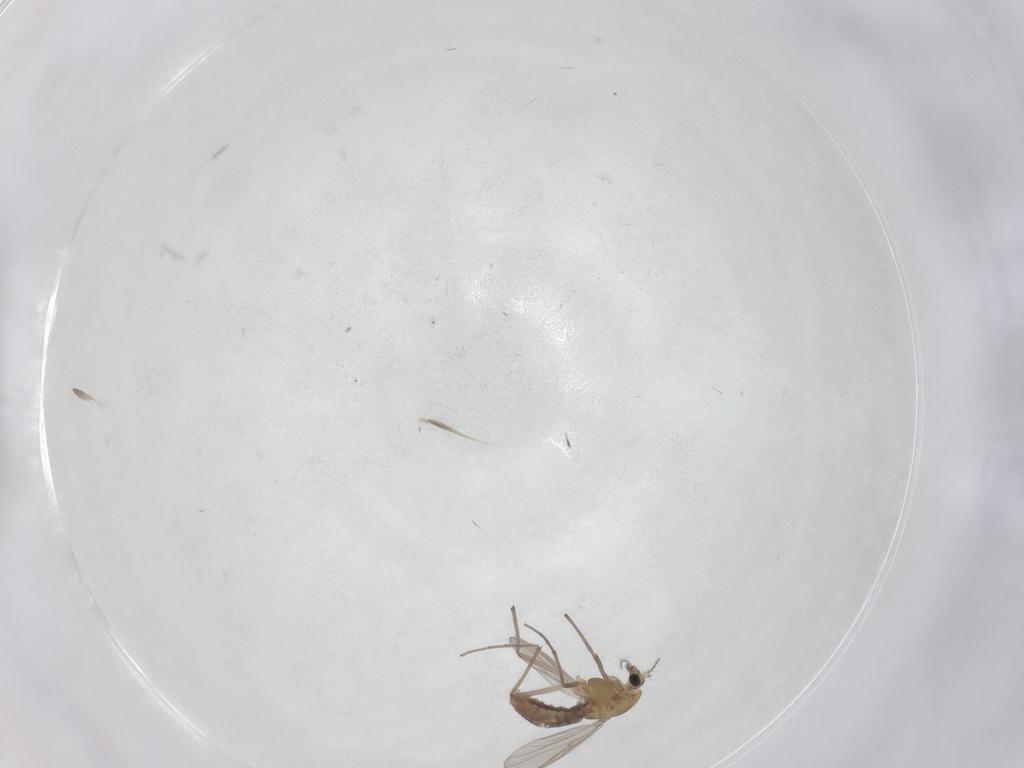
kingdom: Animalia
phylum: Arthropoda
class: Insecta
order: Diptera
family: Chironomidae
